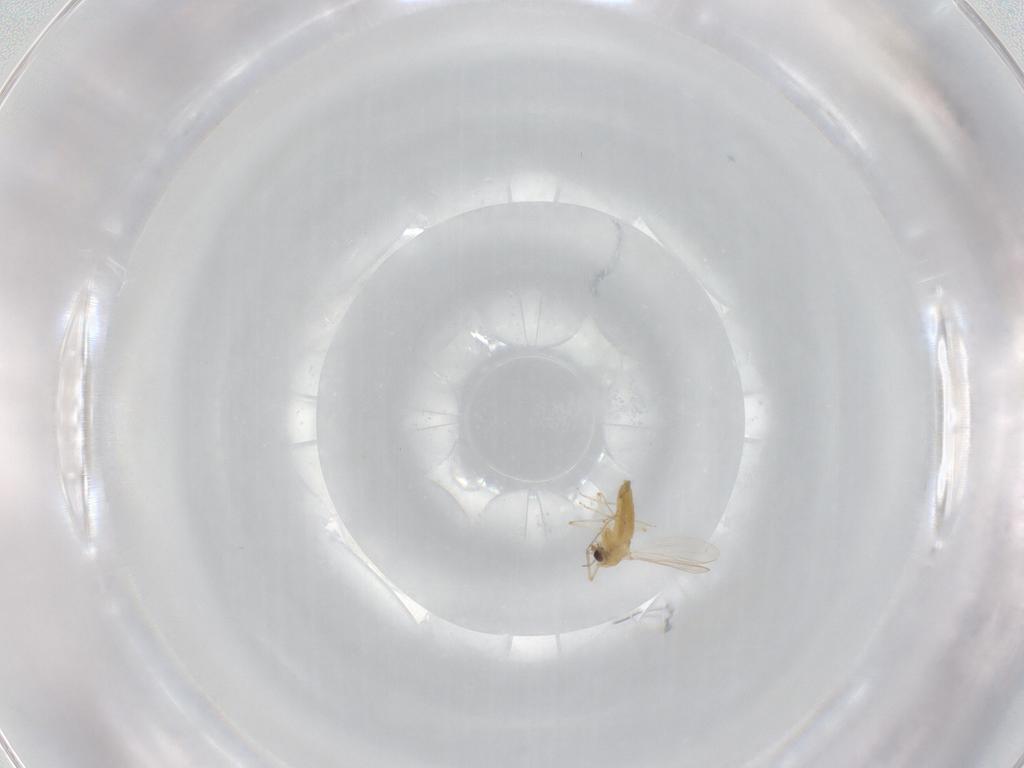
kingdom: Animalia
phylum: Arthropoda
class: Insecta
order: Diptera
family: Chironomidae
